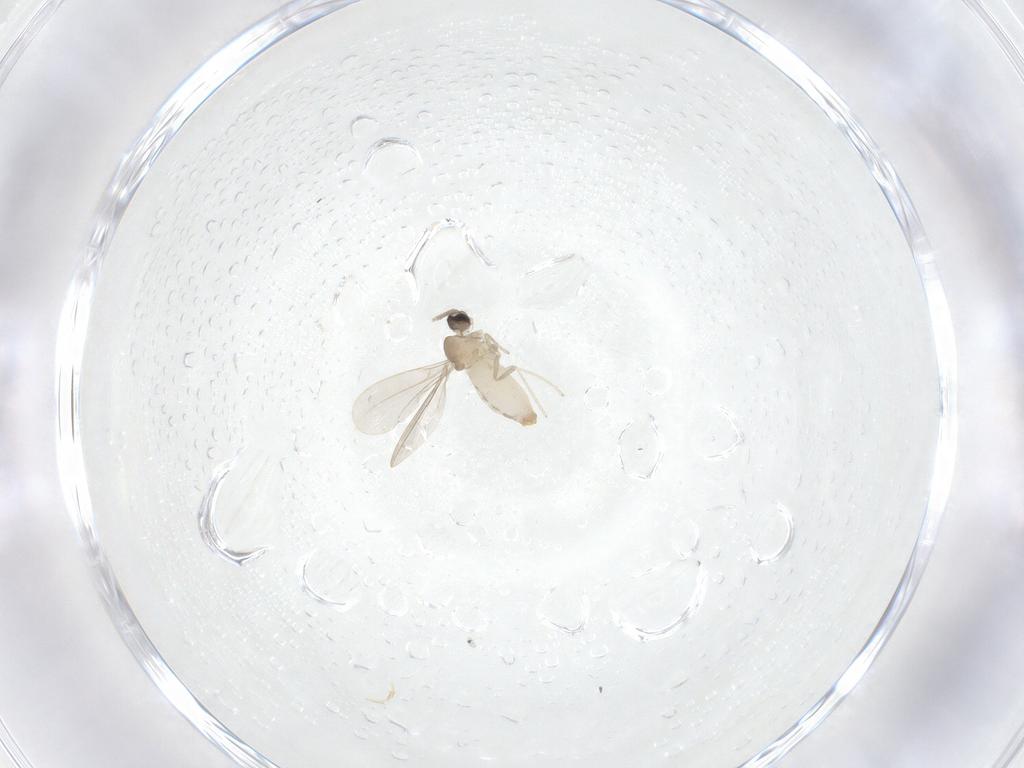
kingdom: Animalia
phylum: Arthropoda
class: Insecta
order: Diptera
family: Cecidomyiidae
